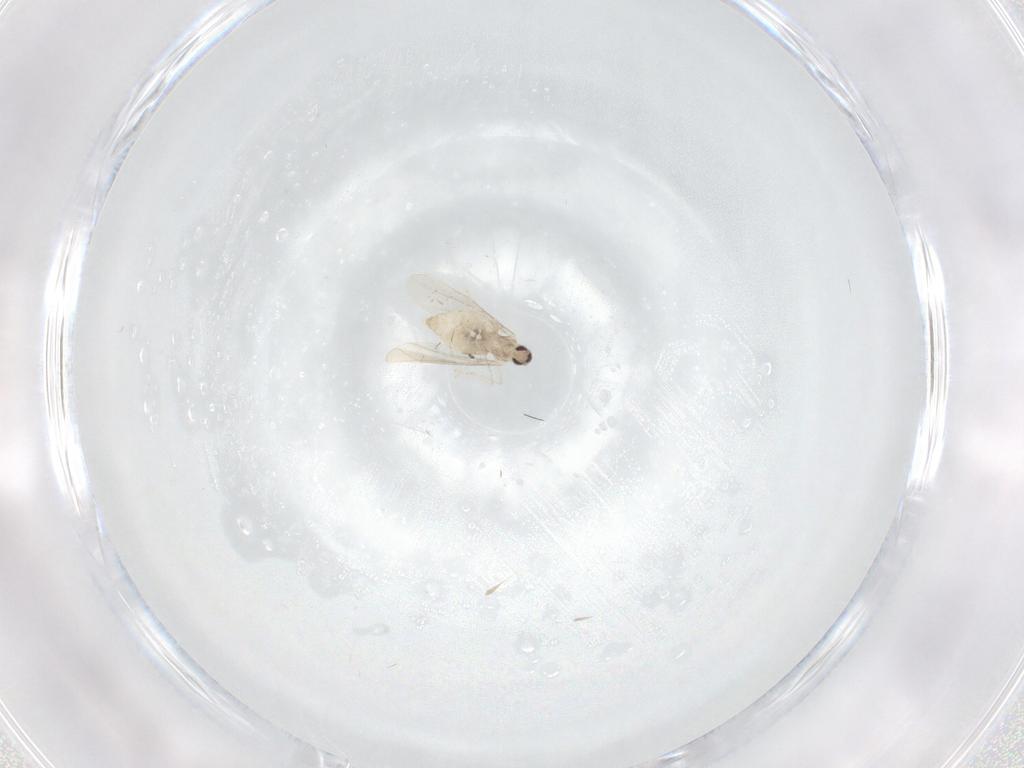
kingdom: Animalia
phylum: Arthropoda
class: Insecta
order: Diptera
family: Cecidomyiidae
